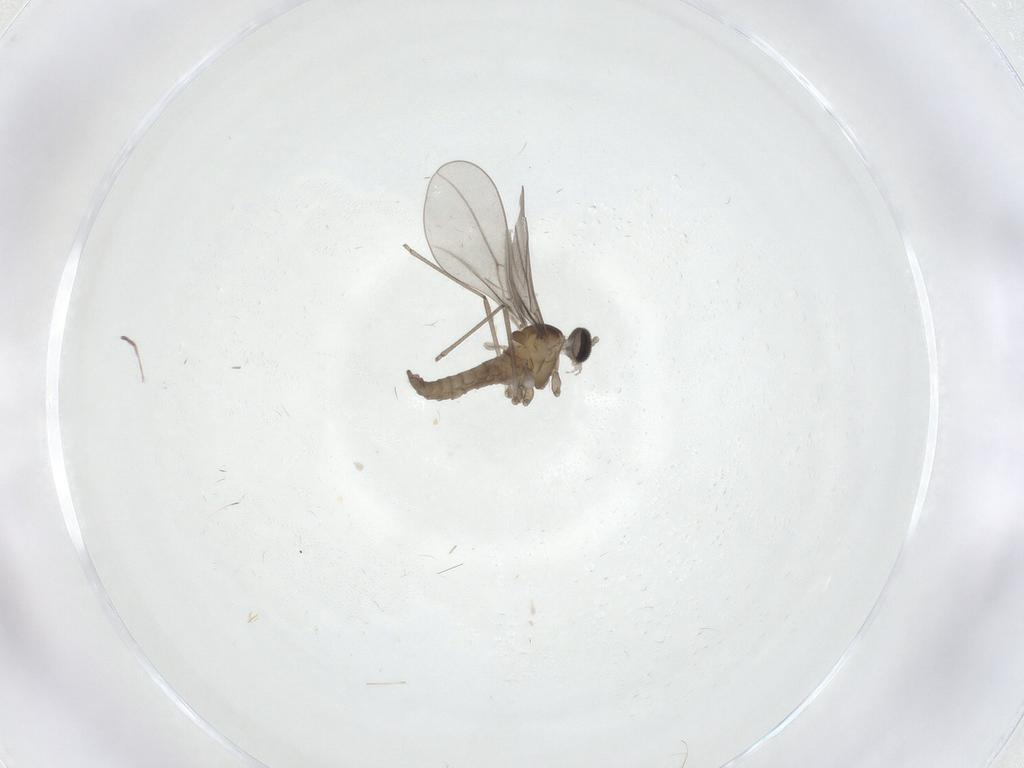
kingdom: Animalia
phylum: Arthropoda
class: Insecta
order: Diptera
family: Cecidomyiidae
